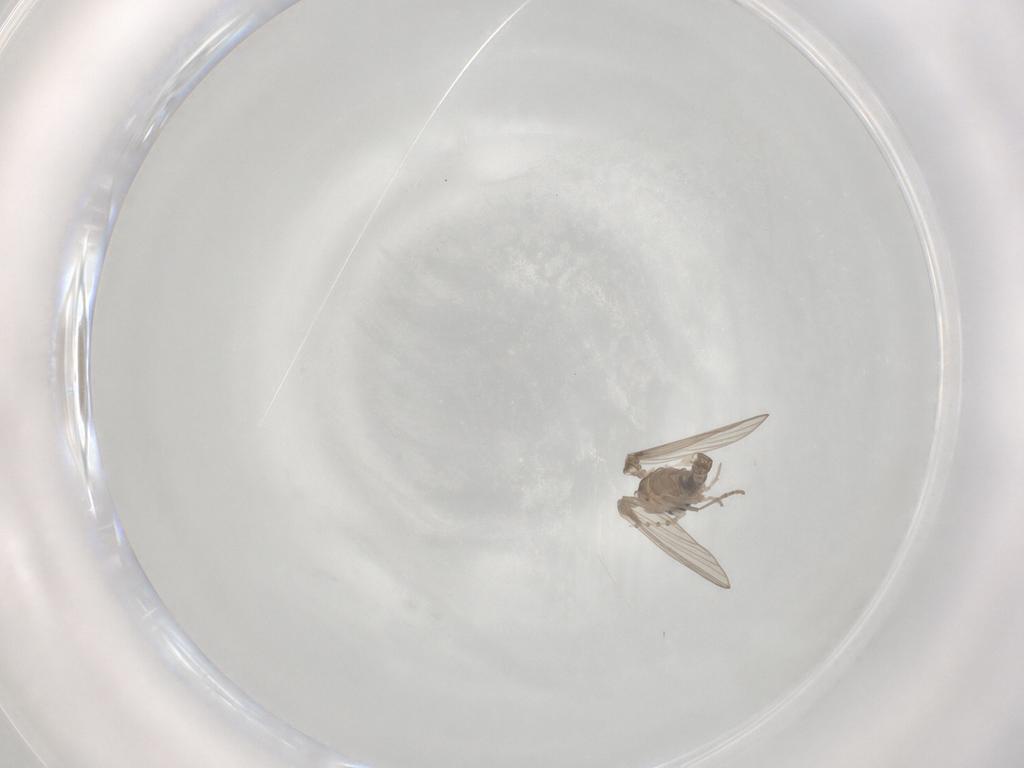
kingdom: Animalia
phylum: Arthropoda
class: Insecta
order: Diptera
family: Psychodidae
